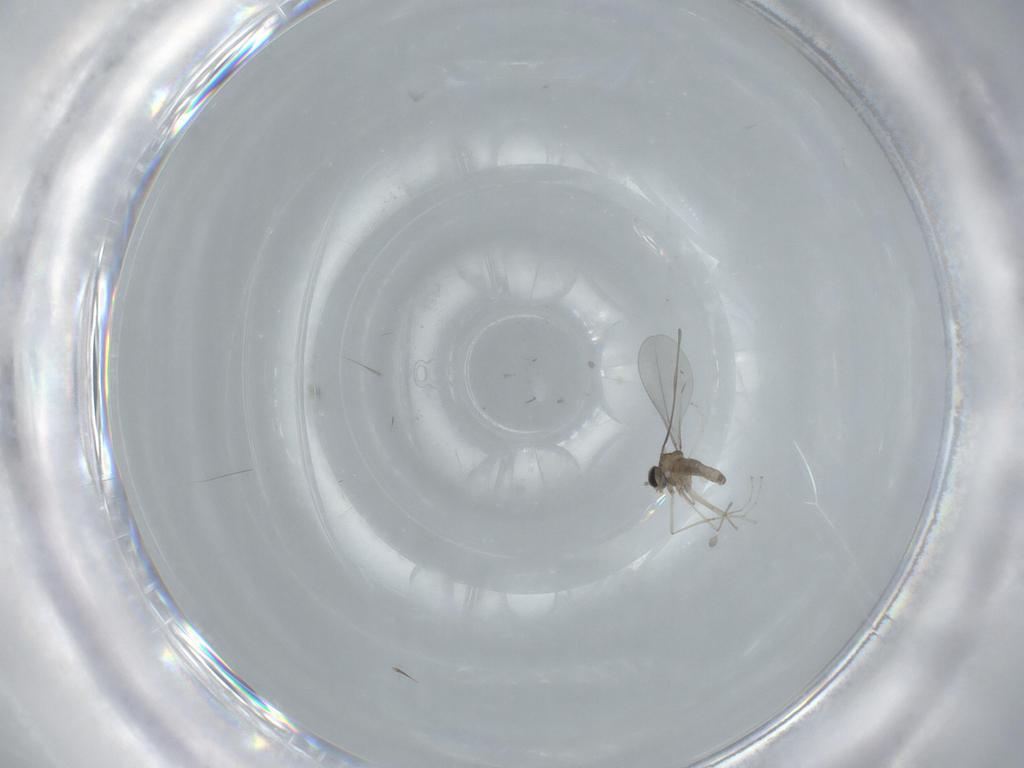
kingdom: Animalia
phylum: Arthropoda
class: Insecta
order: Diptera
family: Cecidomyiidae
